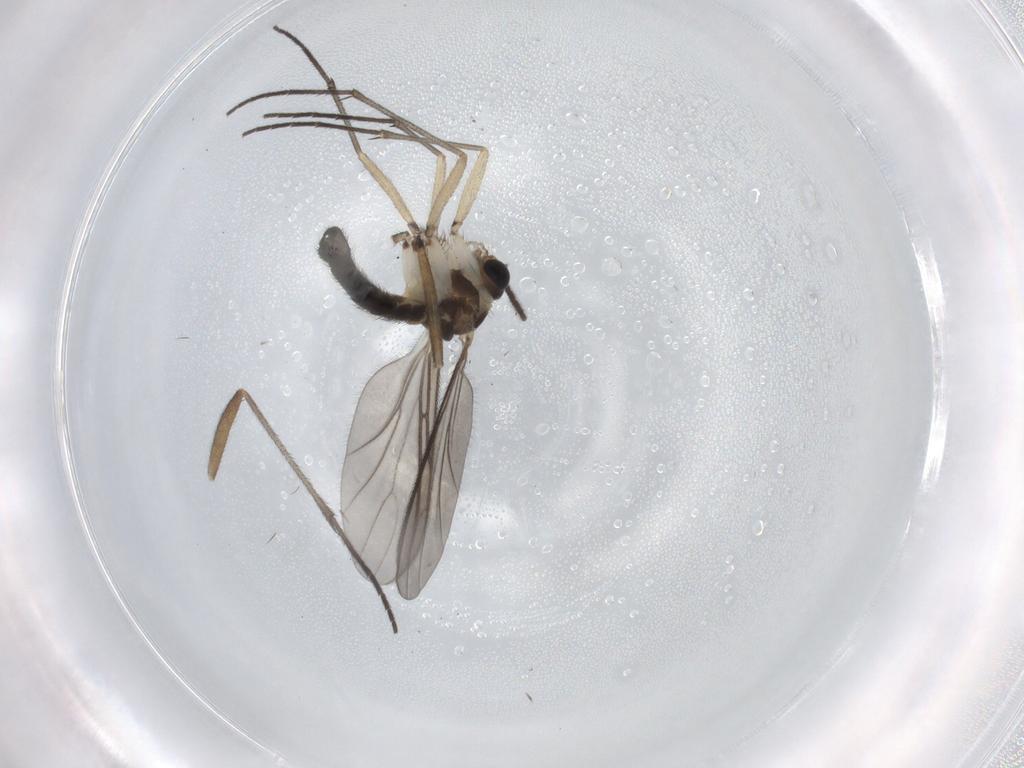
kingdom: Animalia
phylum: Arthropoda
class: Insecta
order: Diptera
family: Sciaridae
